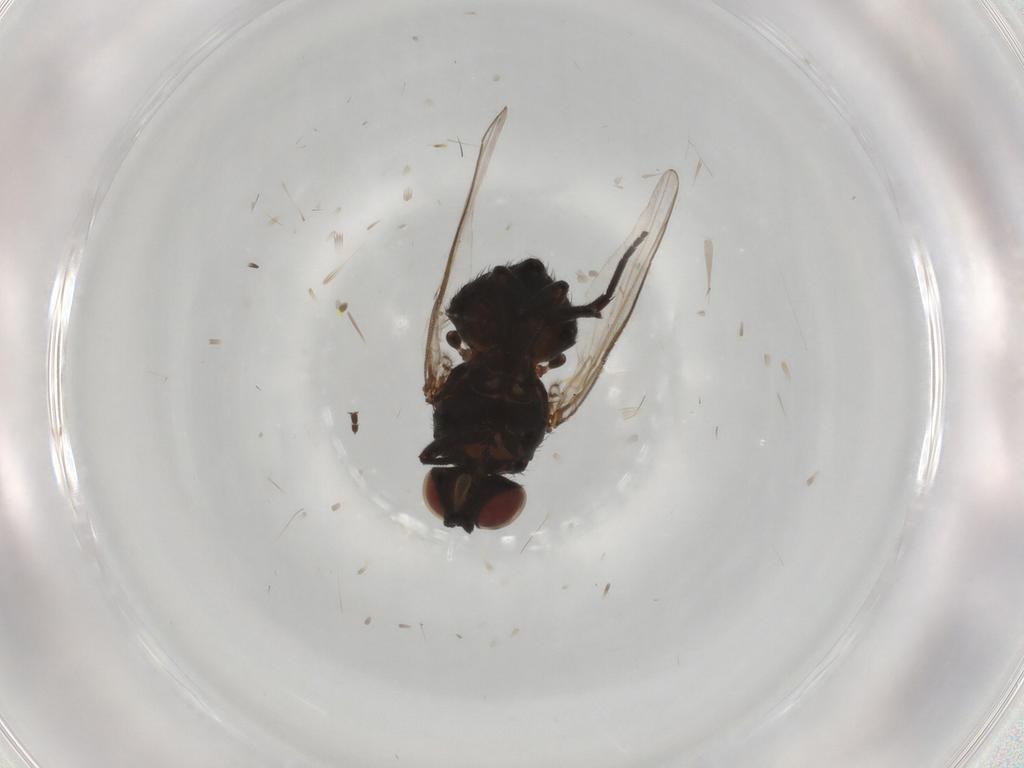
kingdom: Animalia
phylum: Arthropoda
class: Insecta
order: Diptera
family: Psychodidae
